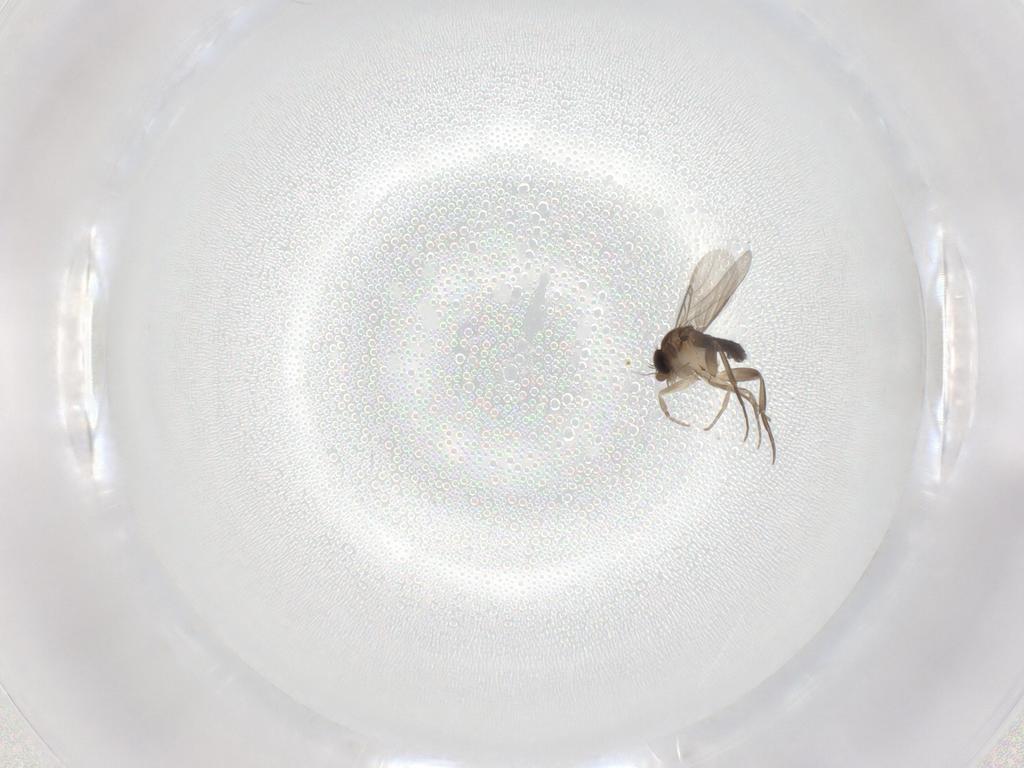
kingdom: Animalia
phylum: Arthropoda
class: Insecta
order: Diptera
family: Phoridae
